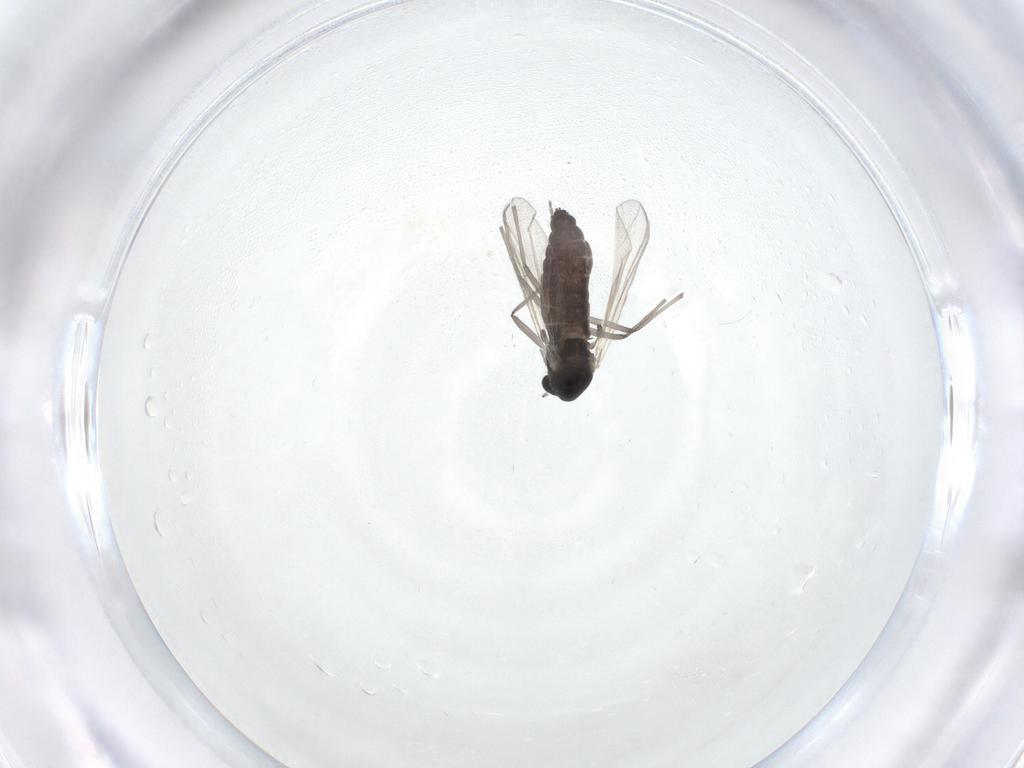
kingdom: Animalia
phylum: Arthropoda
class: Insecta
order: Diptera
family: Chironomidae
